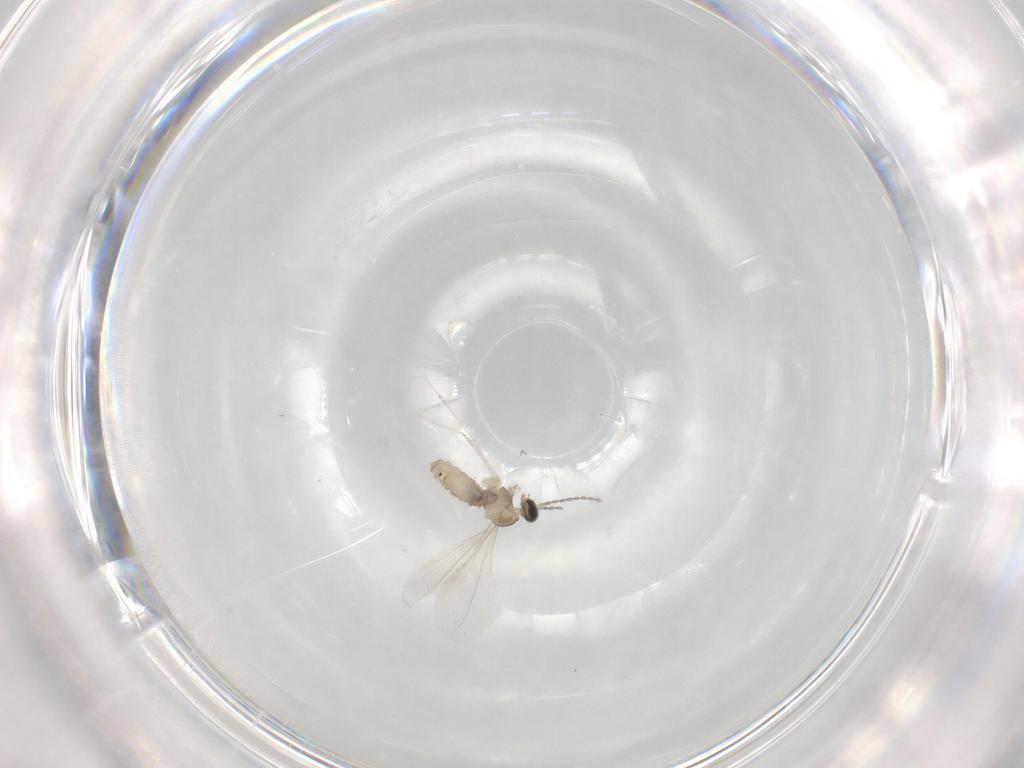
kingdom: Animalia
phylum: Arthropoda
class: Insecta
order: Diptera
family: Cecidomyiidae
